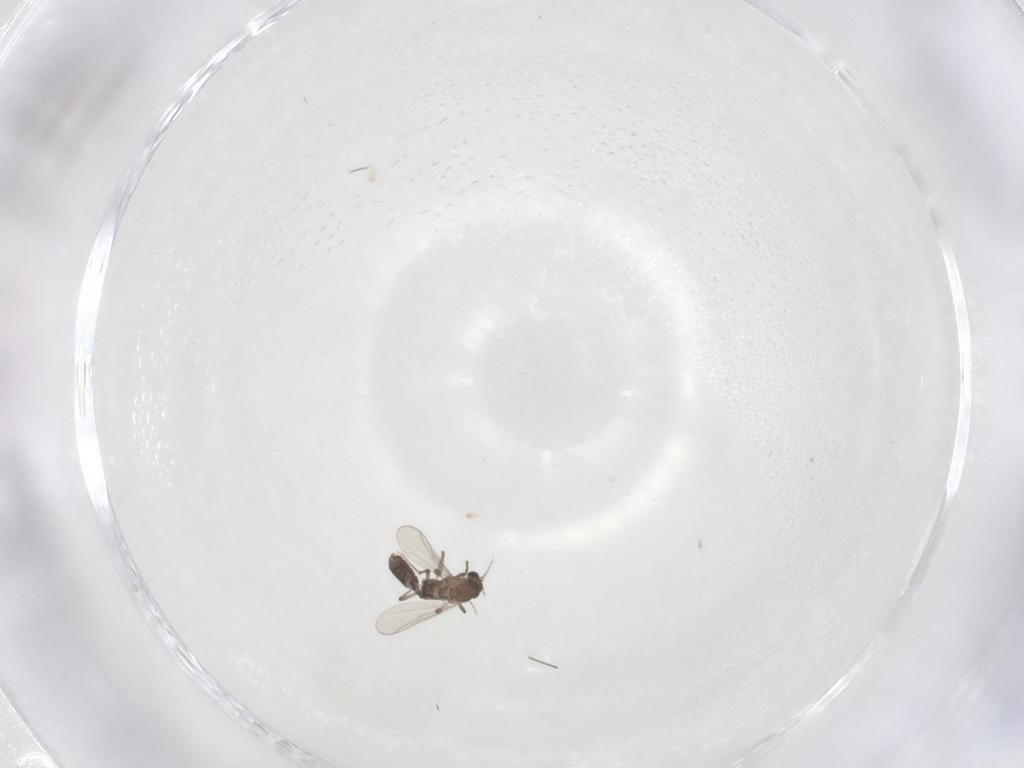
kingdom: Animalia
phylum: Arthropoda
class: Insecta
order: Diptera
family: Chironomidae
